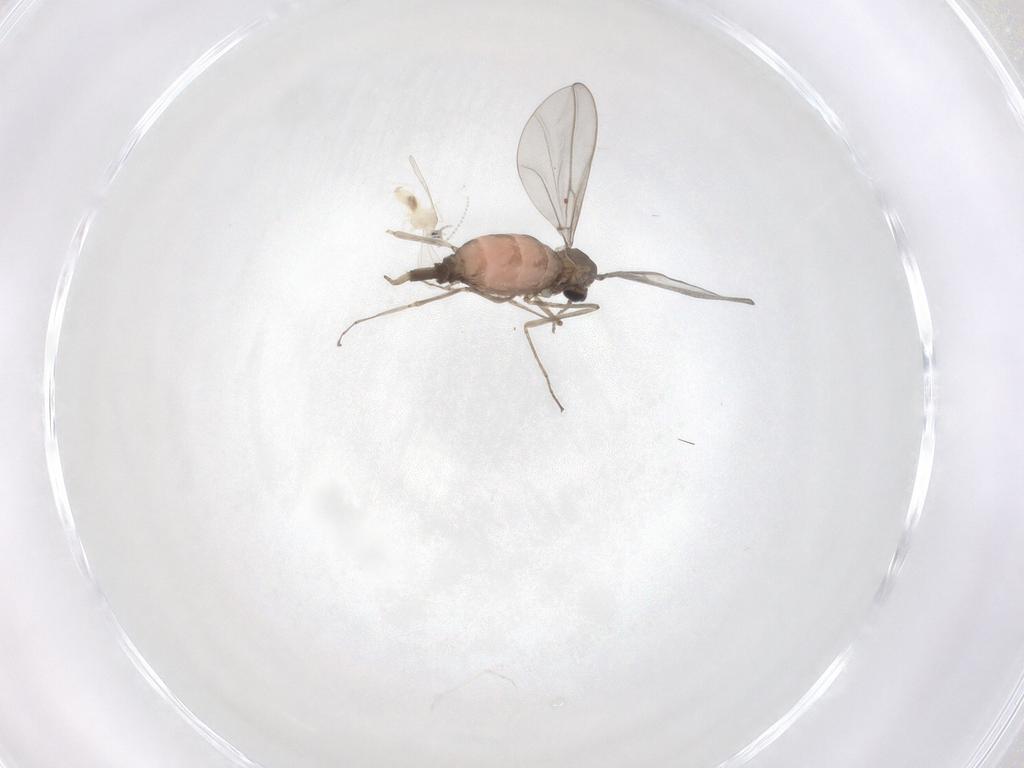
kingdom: Animalia
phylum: Arthropoda
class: Insecta
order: Diptera
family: Cecidomyiidae
